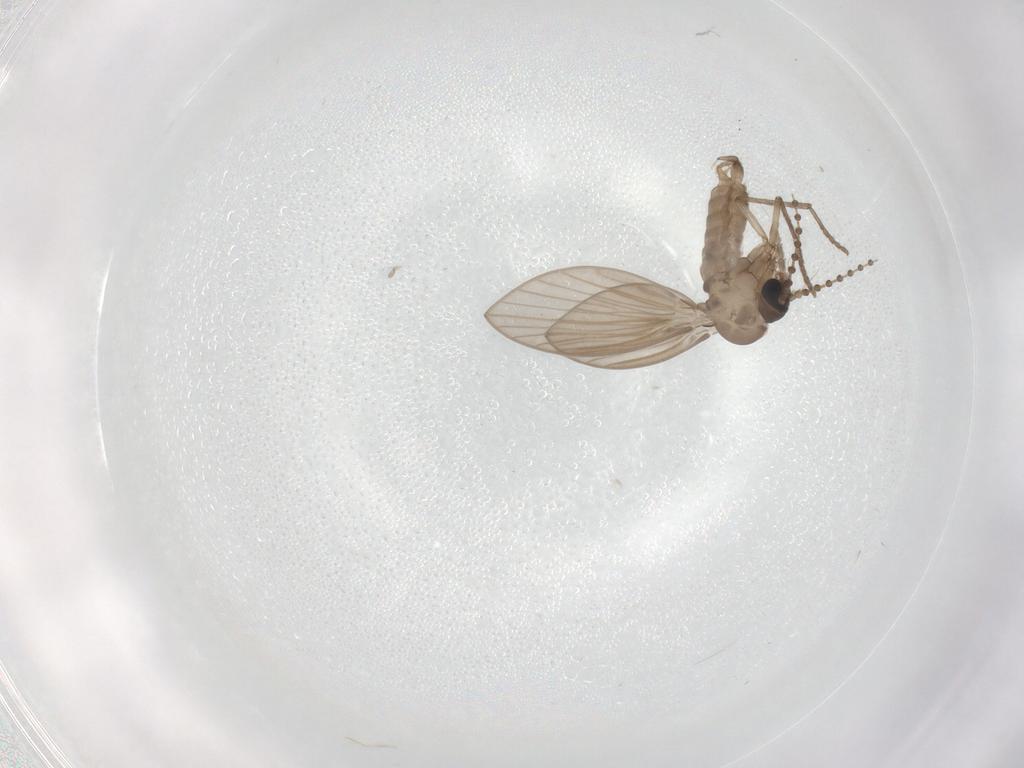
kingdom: Animalia
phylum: Arthropoda
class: Insecta
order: Diptera
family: Psychodidae
